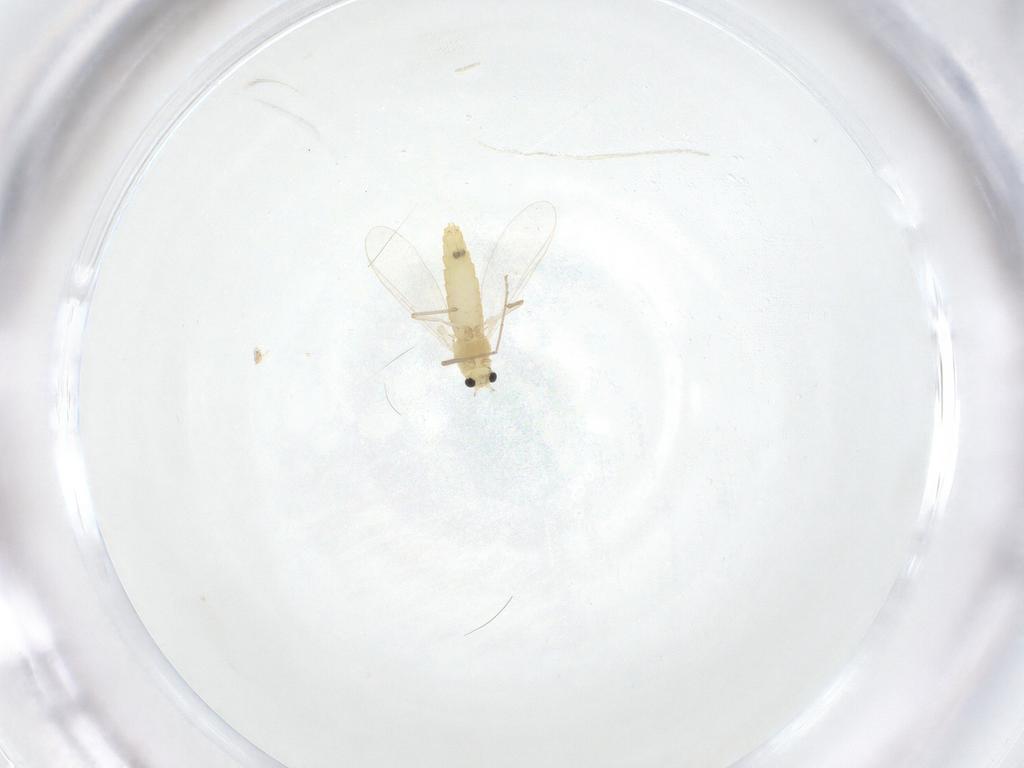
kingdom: Animalia
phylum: Arthropoda
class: Insecta
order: Diptera
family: Chironomidae
